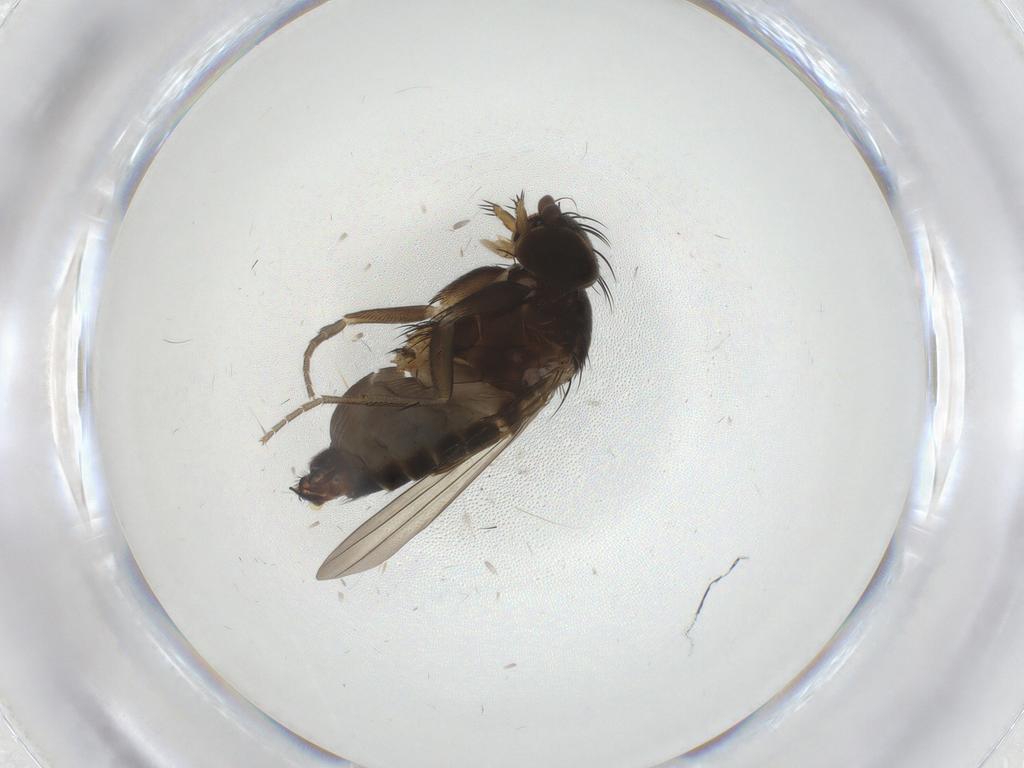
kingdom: Animalia
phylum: Arthropoda
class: Insecta
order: Diptera
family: Phoridae
